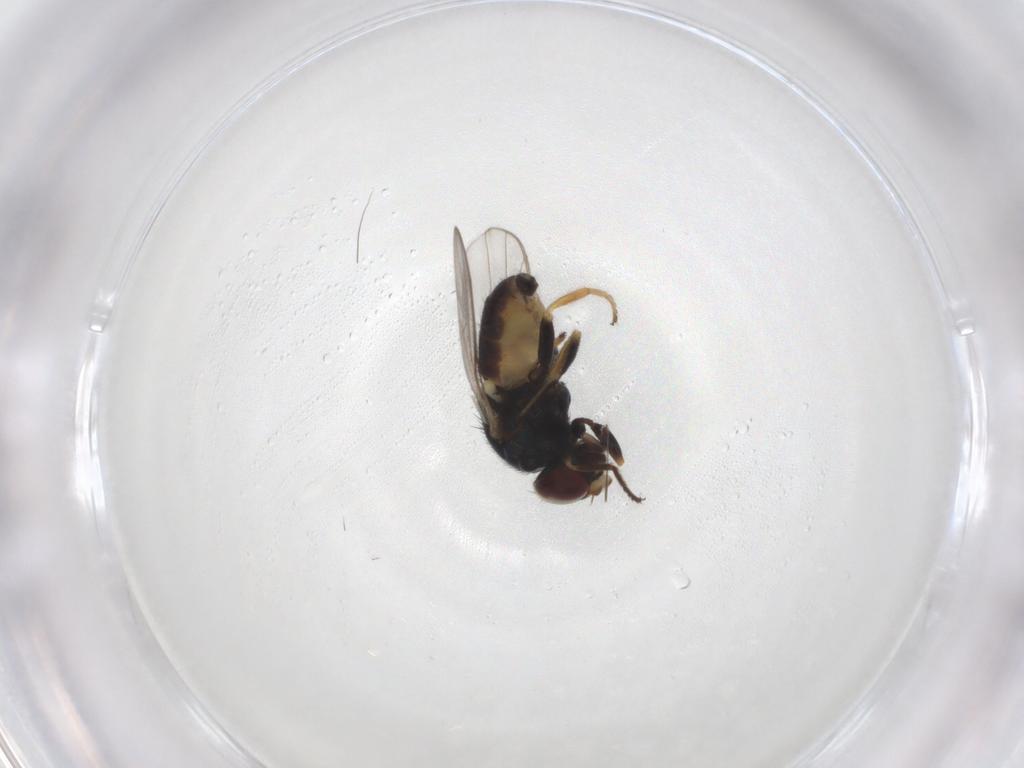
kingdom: Animalia
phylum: Arthropoda
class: Insecta
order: Diptera
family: Chloropidae
